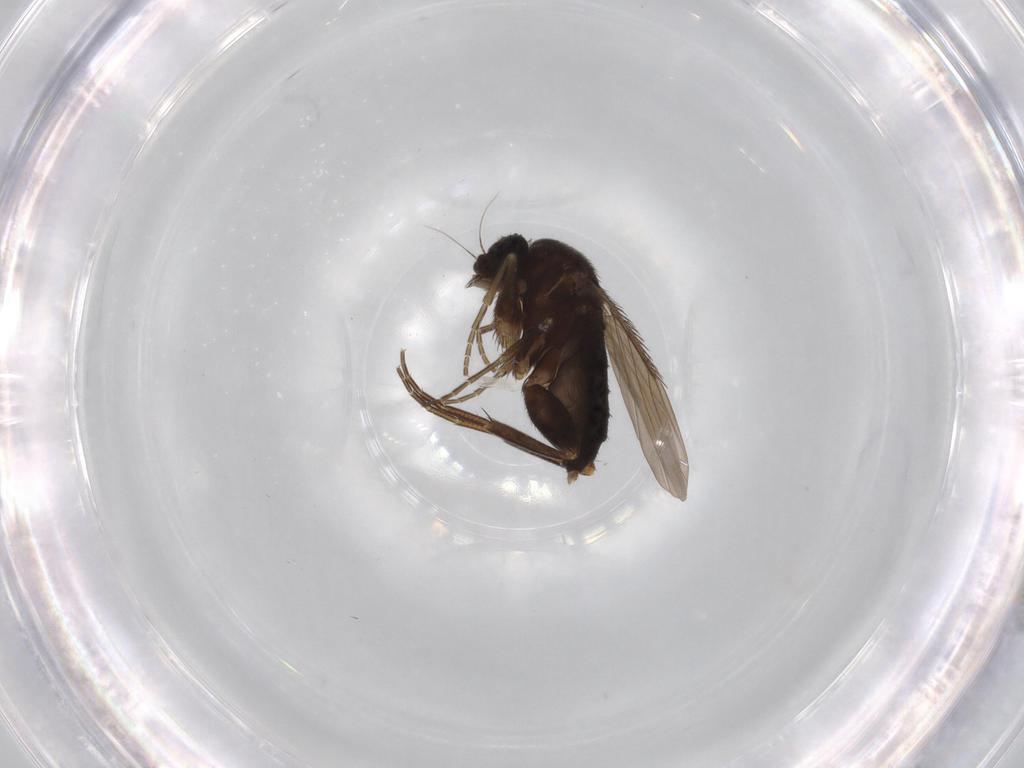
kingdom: Animalia
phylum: Arthropoda
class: Insecta
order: Diptera
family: Phoridae
